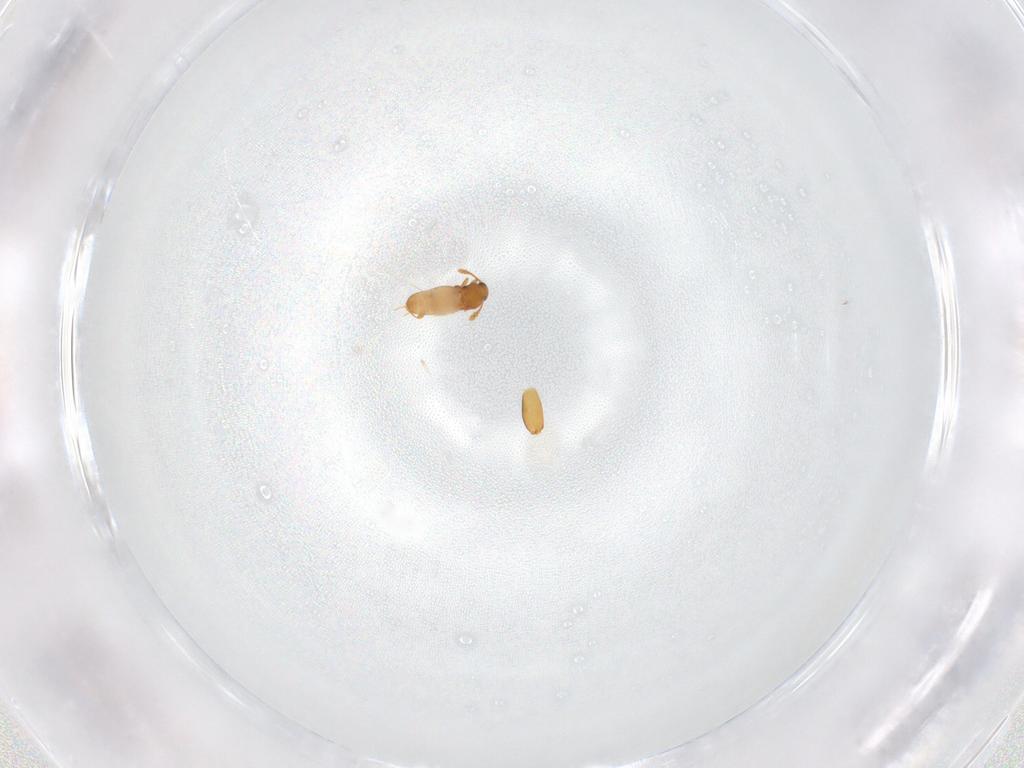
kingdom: Animalia
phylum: Arthropoda
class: Insecta
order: Coleoptera
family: Staphylinidae
